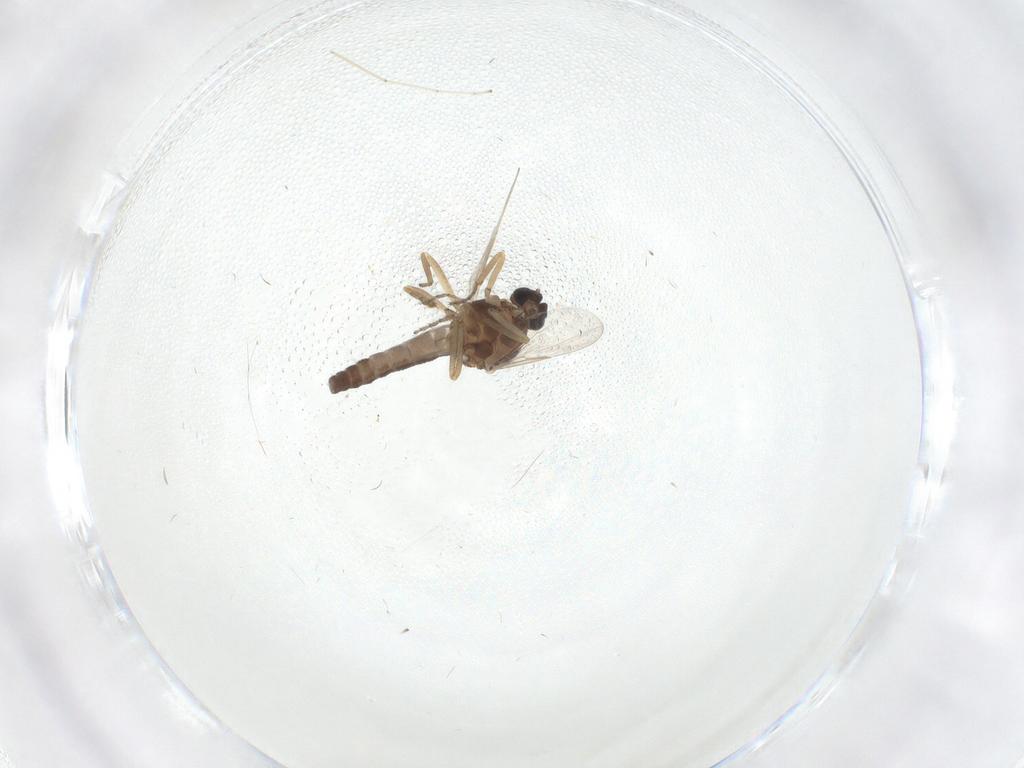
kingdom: Animalia
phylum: Arthropoda
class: Insecta
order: Diptera
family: Ceratopogonidae
